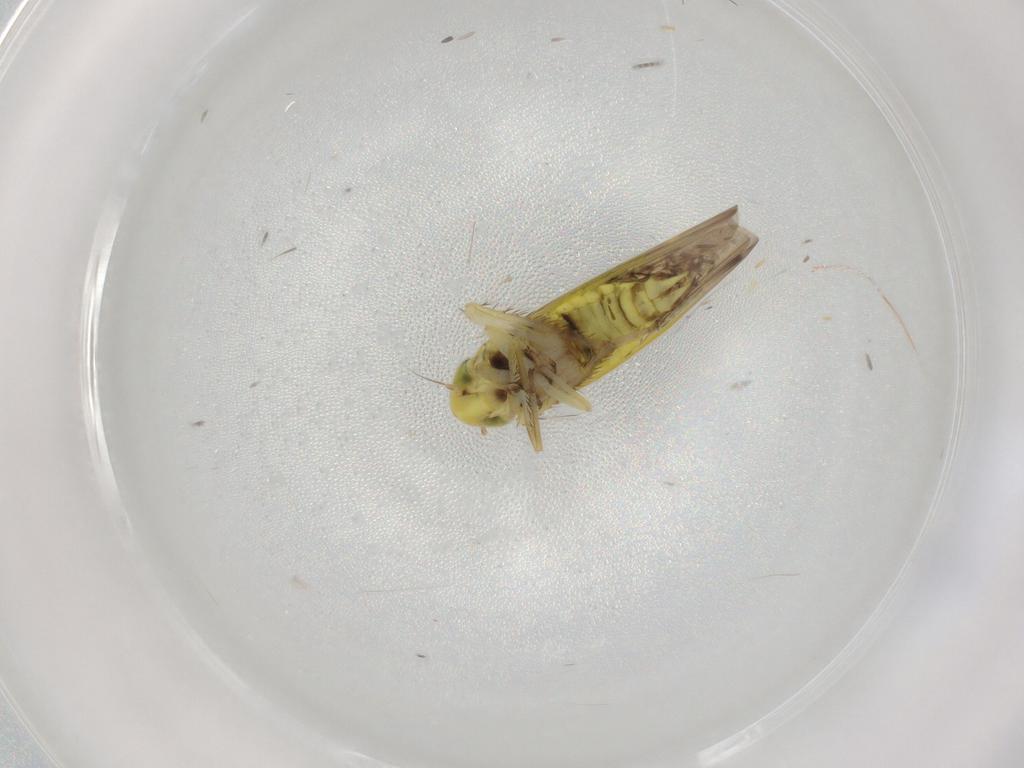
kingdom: Animalia
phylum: Arthropoda
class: Insecta
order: Hemiptera
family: Cicadellidae
